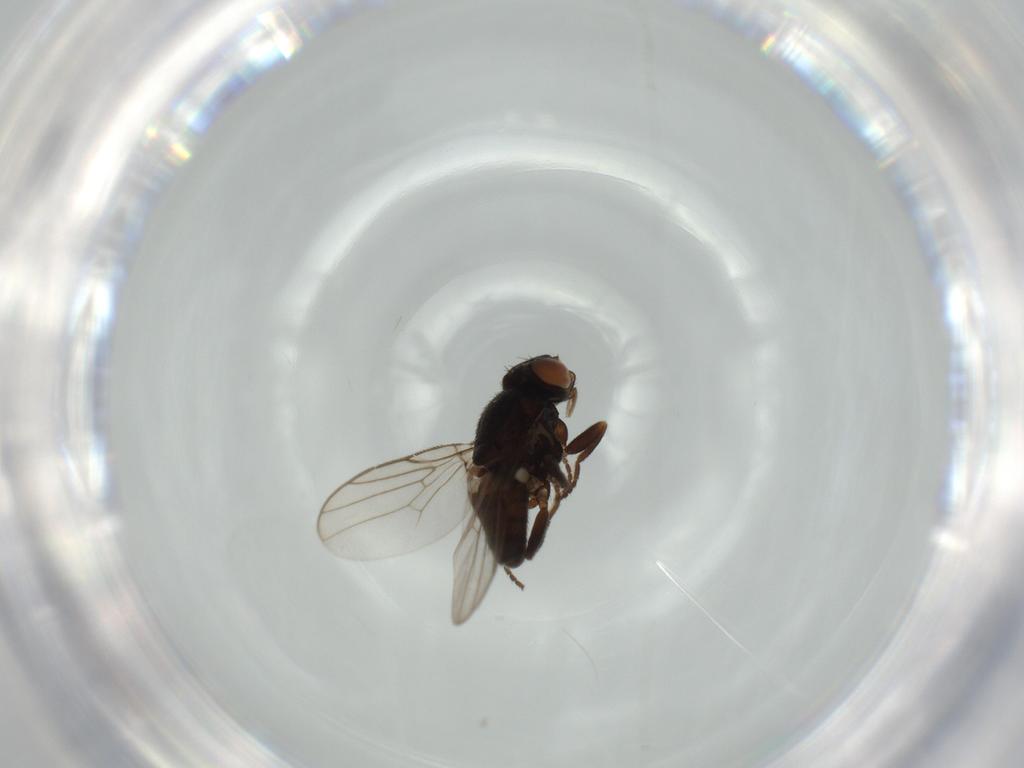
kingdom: Animalia
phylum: Arthropoda
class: Insecta
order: Diptera
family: Chloropidae
